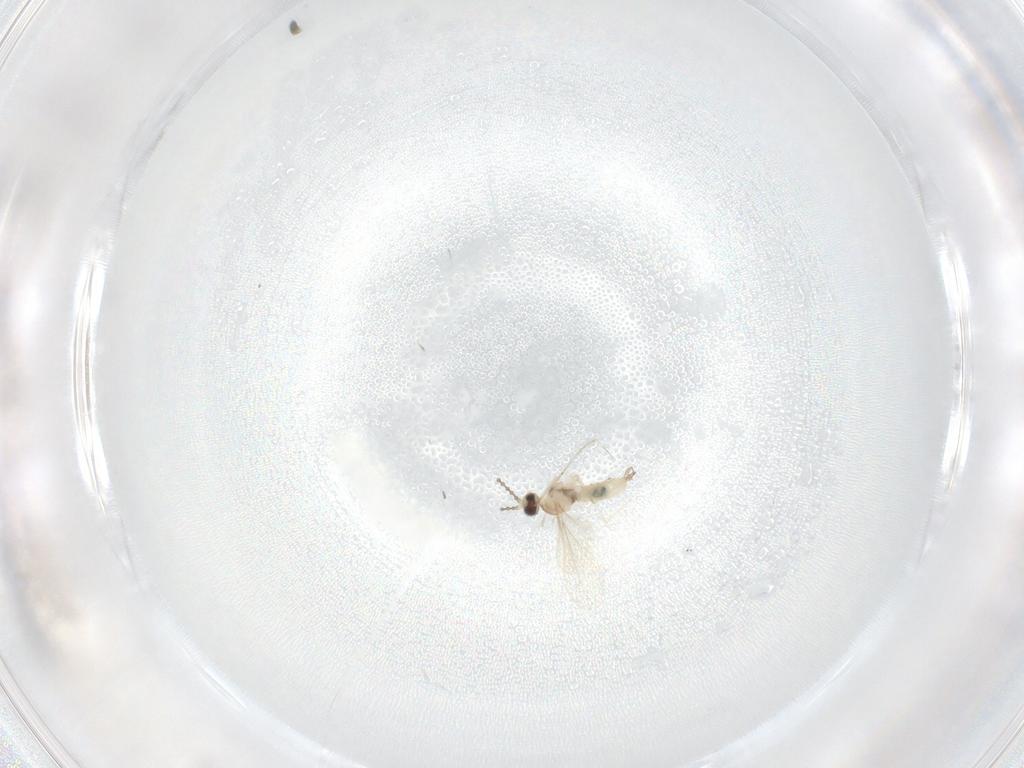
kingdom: Animalia
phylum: Arthropoda
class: Insecta
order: Diptera
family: Cecidomyiidae
